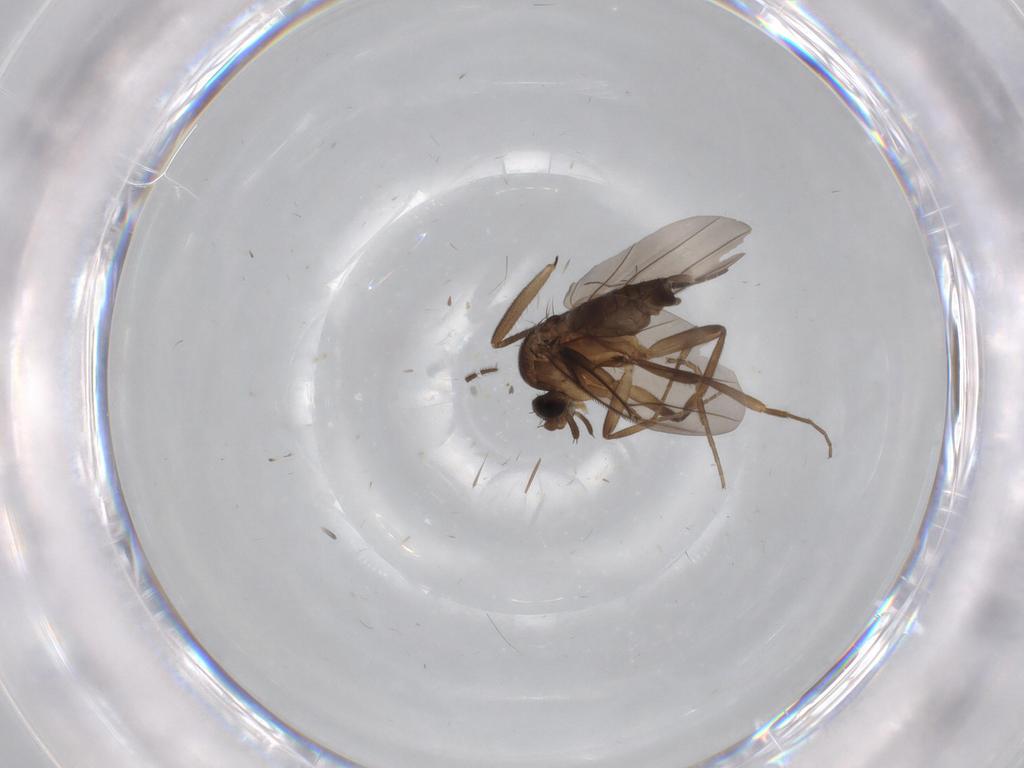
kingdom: Animalia
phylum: Arthropoda
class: Insecta
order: Diptera
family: Phoridae
